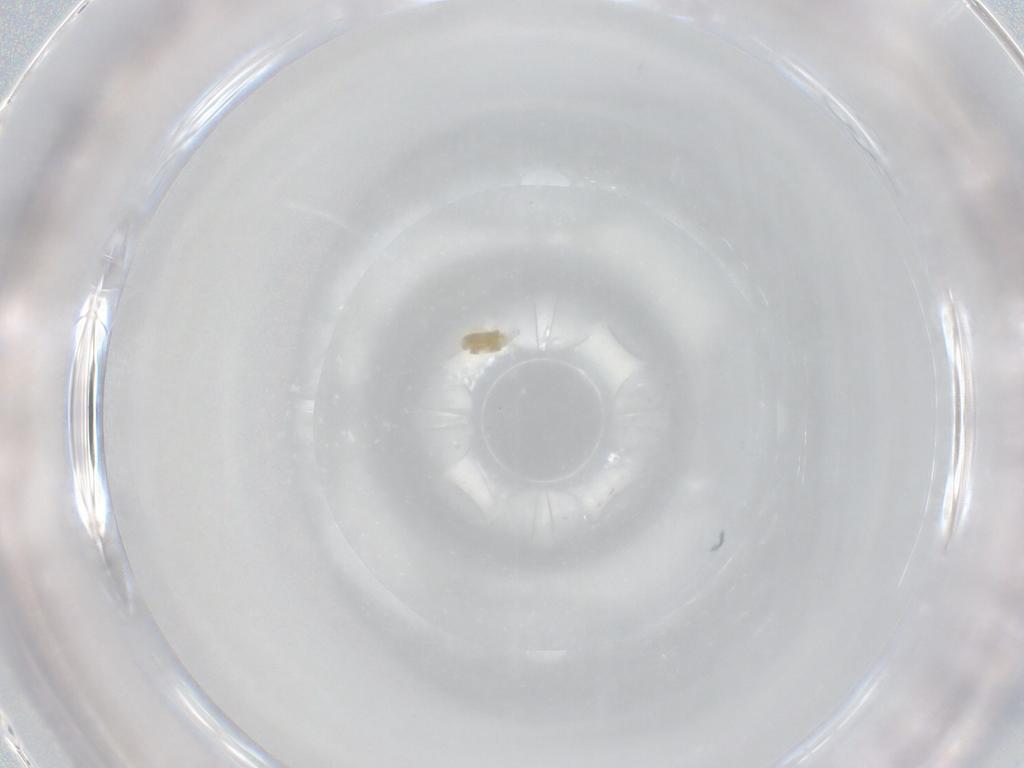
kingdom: Animalia
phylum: Arthropoda
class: Arachnida
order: Trombidiformes
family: Eupodidae
